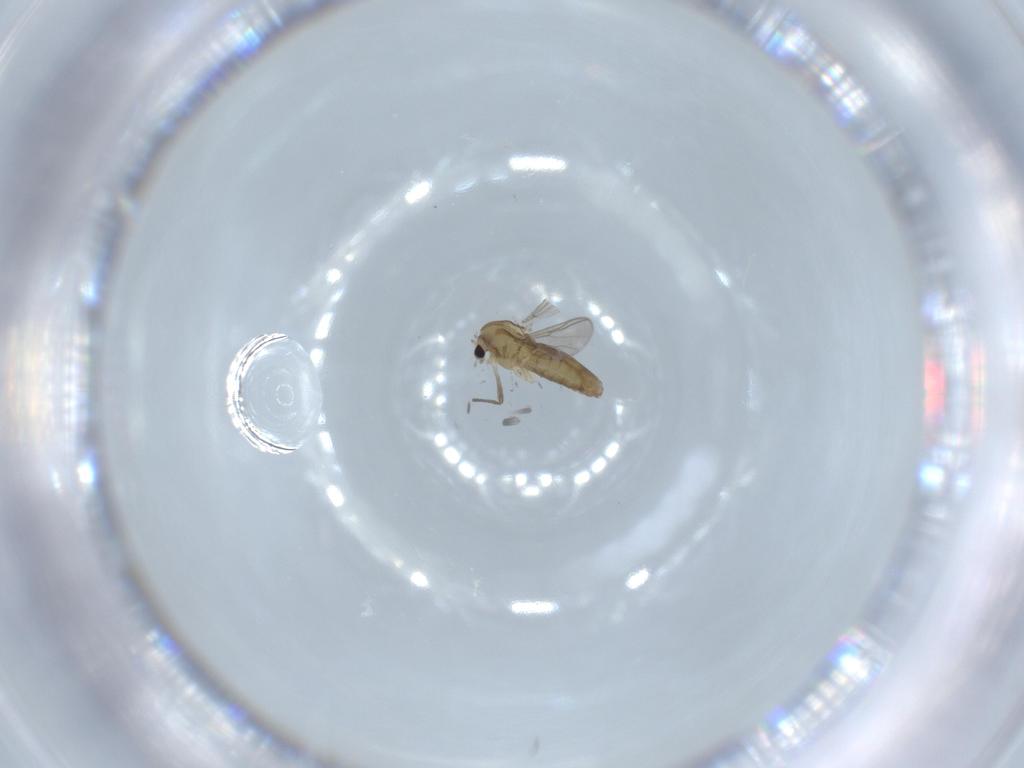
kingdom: Animalia
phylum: Arthropoda
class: Insecta
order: Diptera
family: Chironomidae
